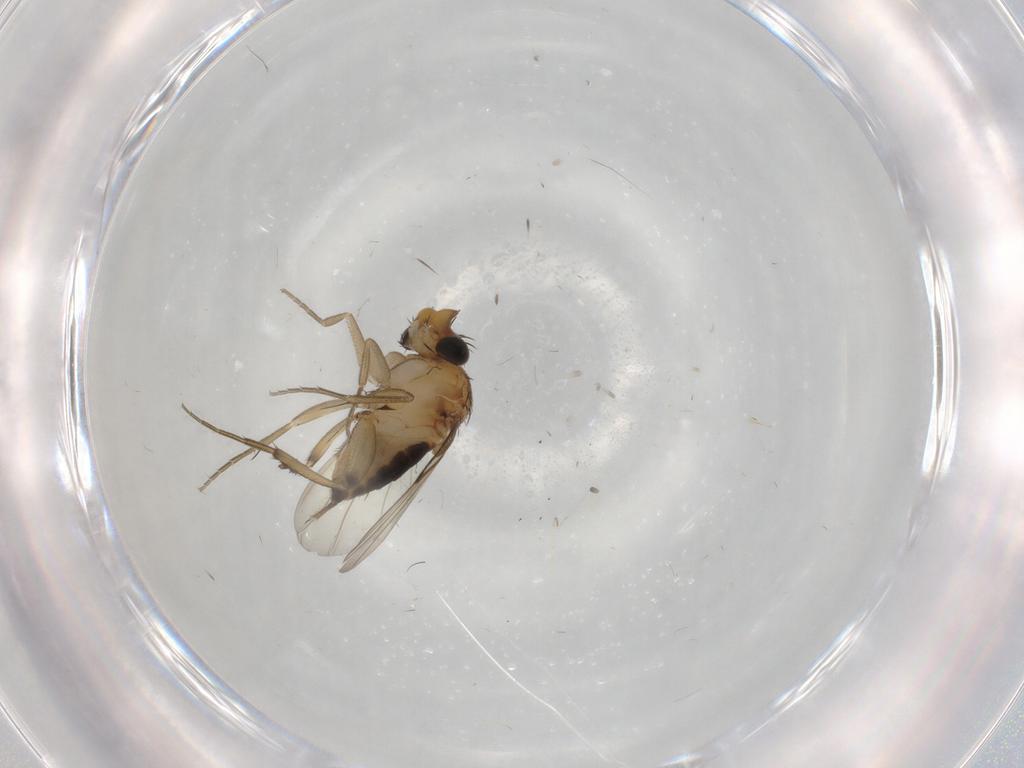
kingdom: Animalia
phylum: Arthropoda
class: Insecta
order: Diptera
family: Cecidomyiidae
